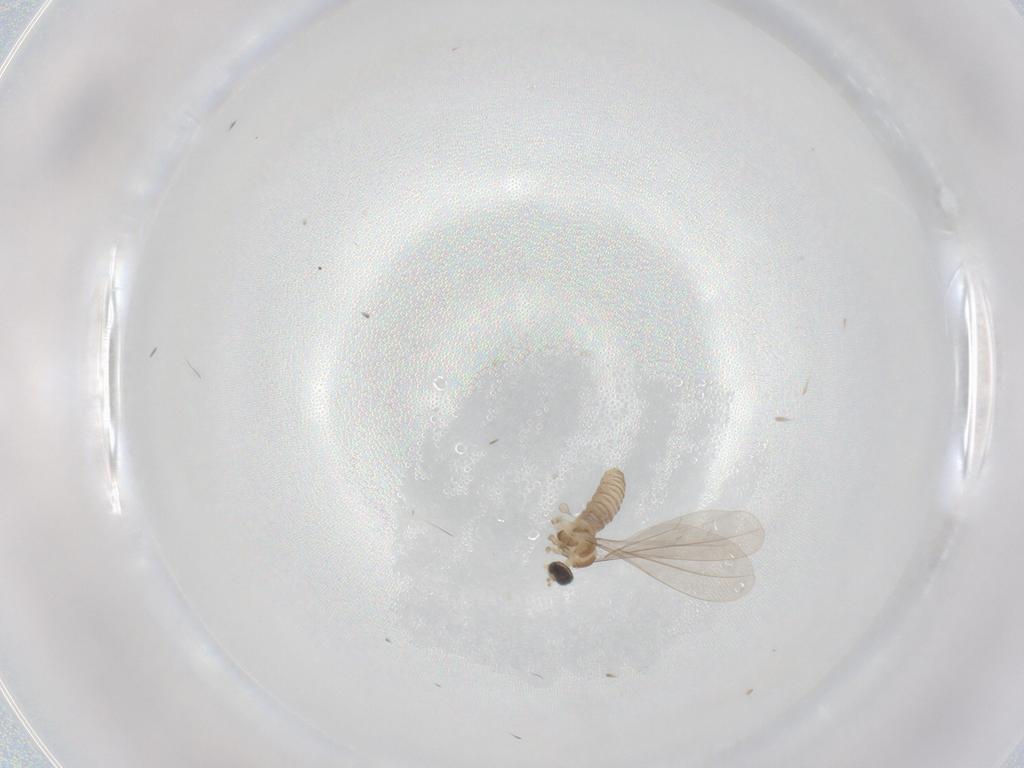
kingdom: Animalia
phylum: Arthropoda
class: Insecta
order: Diptera
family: Cecidomyiidae
